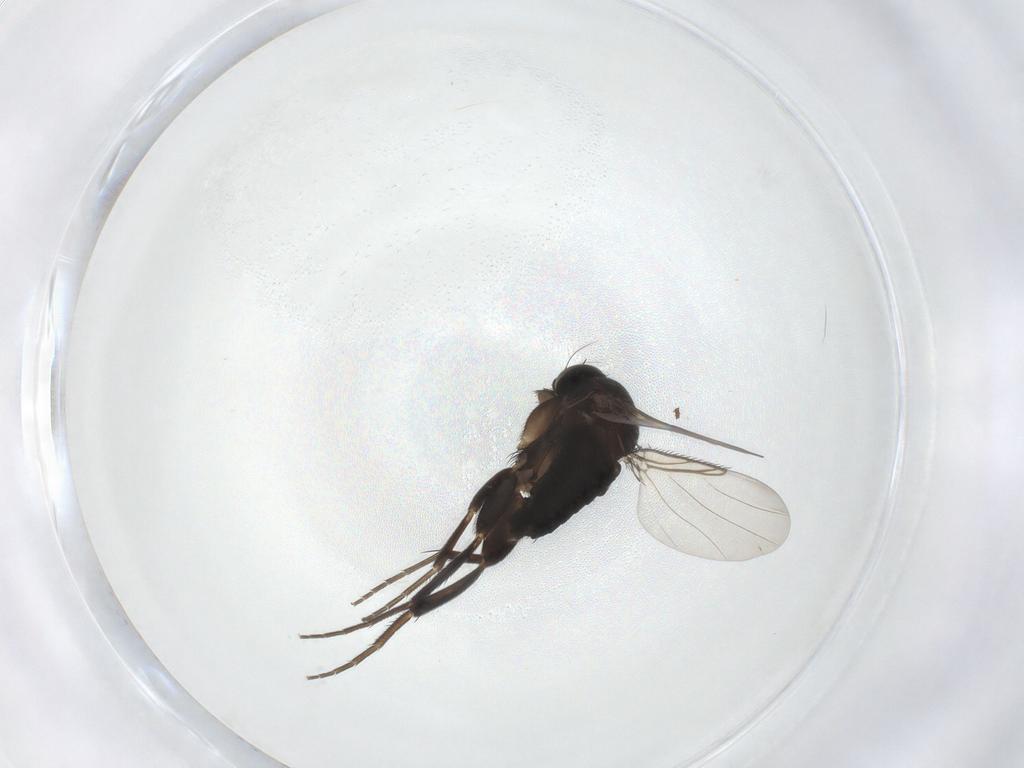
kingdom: Animalia
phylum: Arthropoda
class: Insecta
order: Diptera
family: Phoridae
